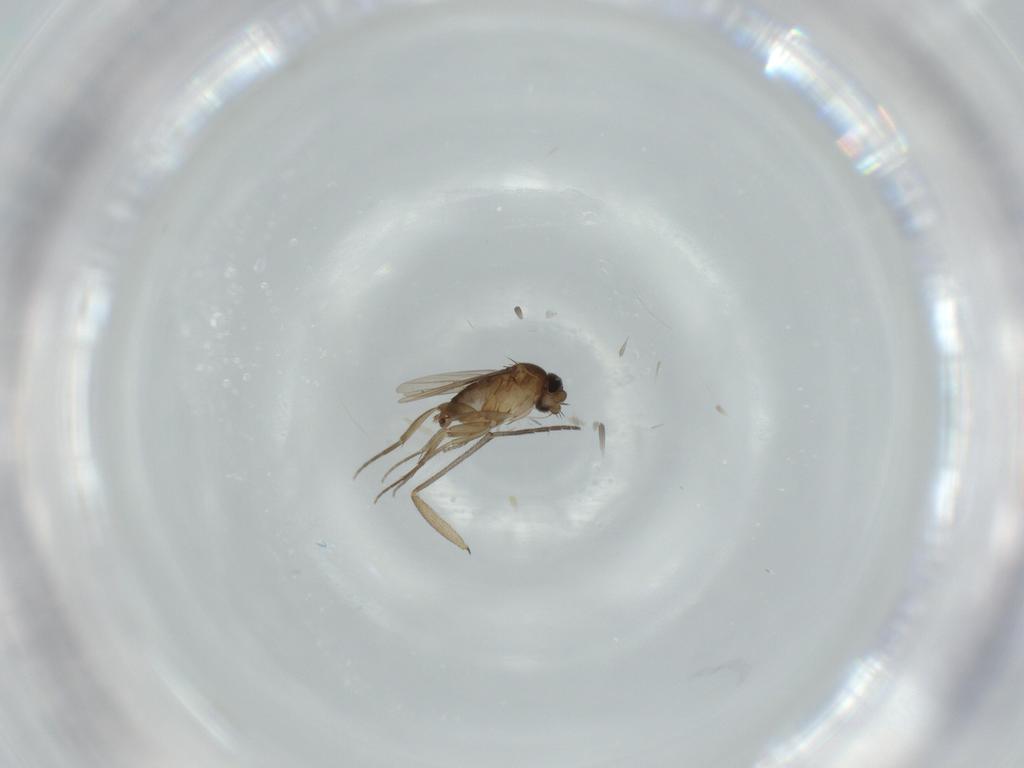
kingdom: Animalia
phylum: Arthropoda
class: Insecta
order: Diptera
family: Phoridae
